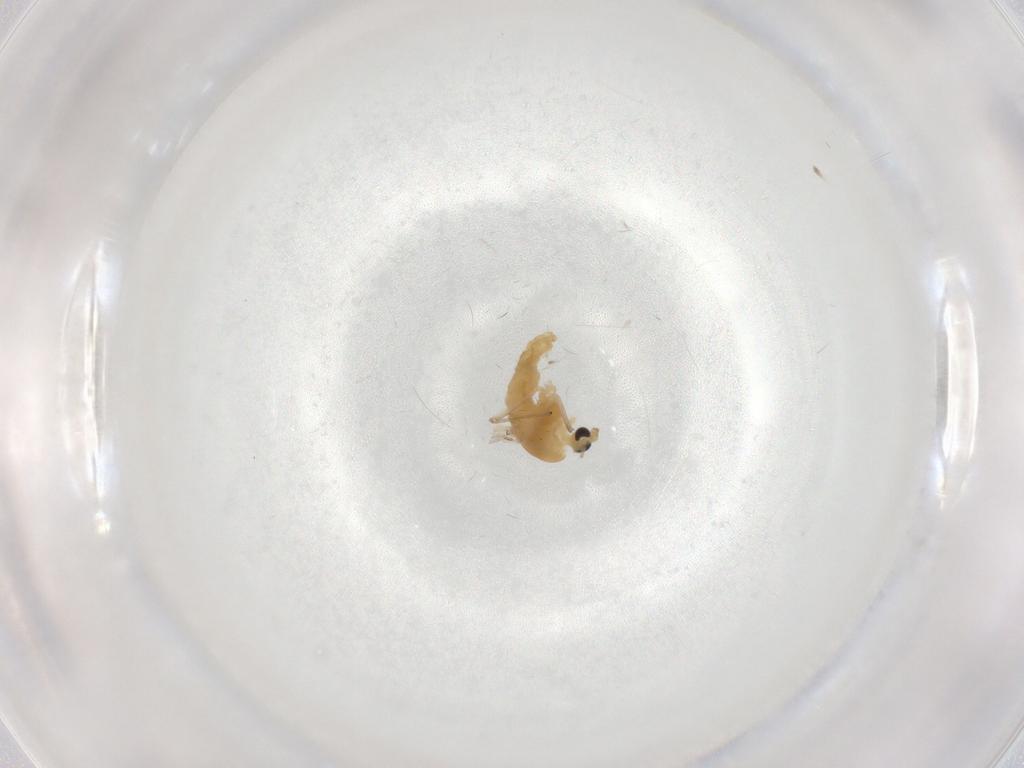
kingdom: Animalia
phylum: Arthropoda
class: Insecta
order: Diptera
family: Chironomidae
